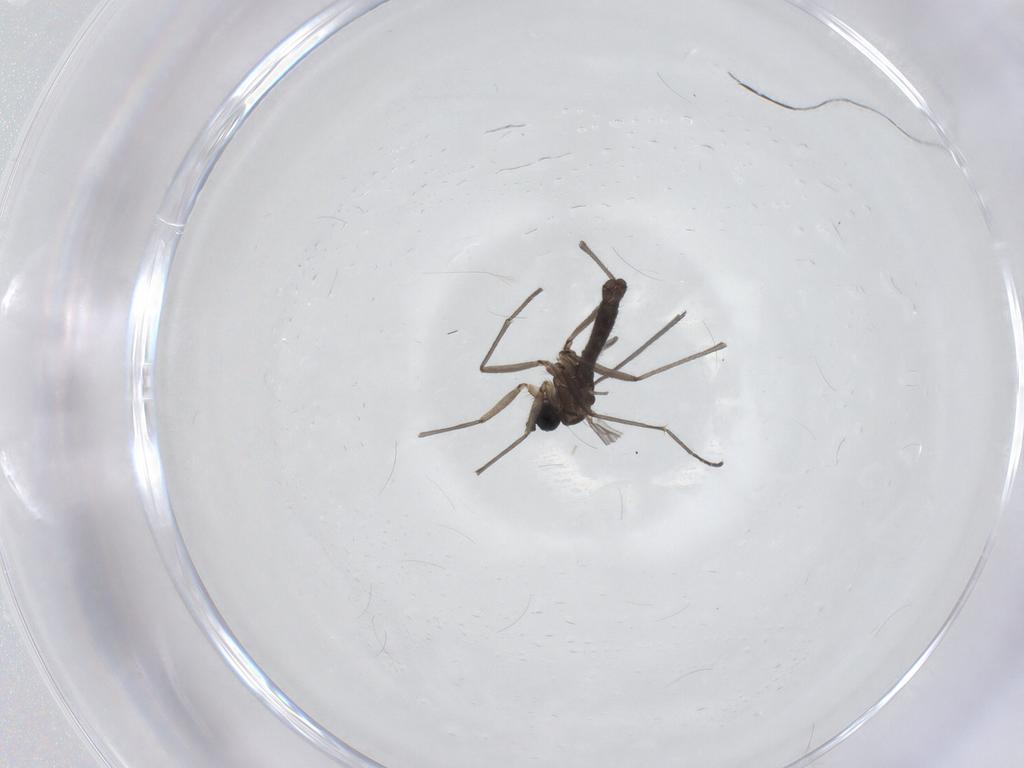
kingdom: Animalia
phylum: Arthropoda
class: Insecta
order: Diptera
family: Sciaridae
